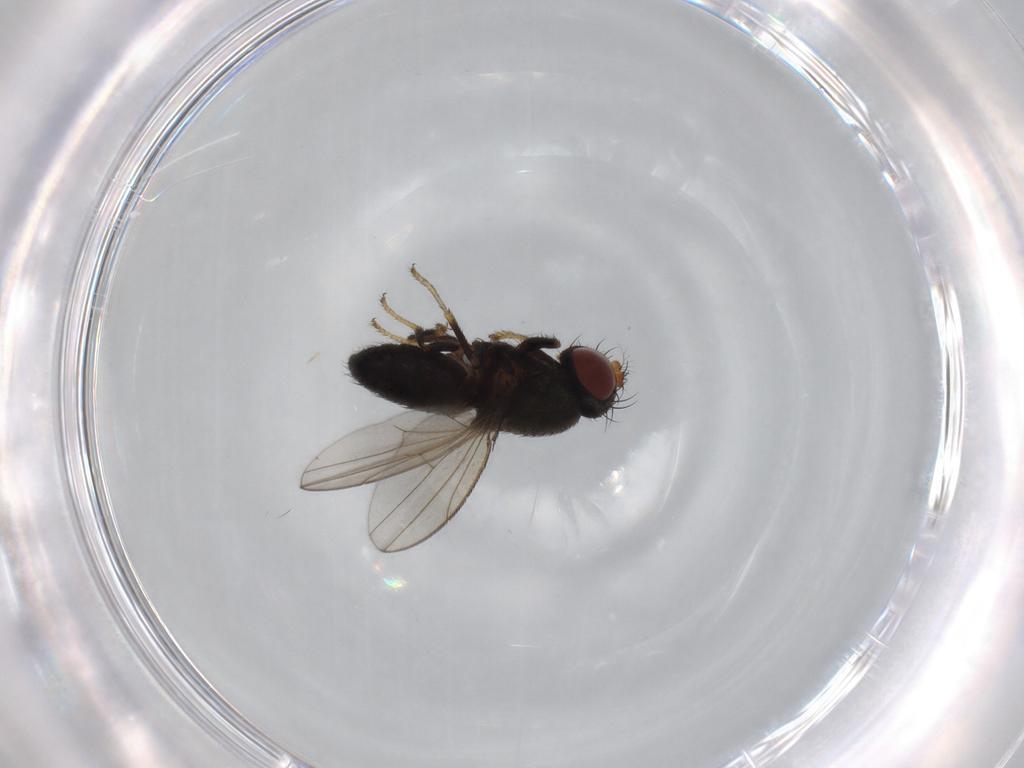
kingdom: Animalia
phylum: Arthropoda
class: Insecta
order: Diptera
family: Ephydridae
